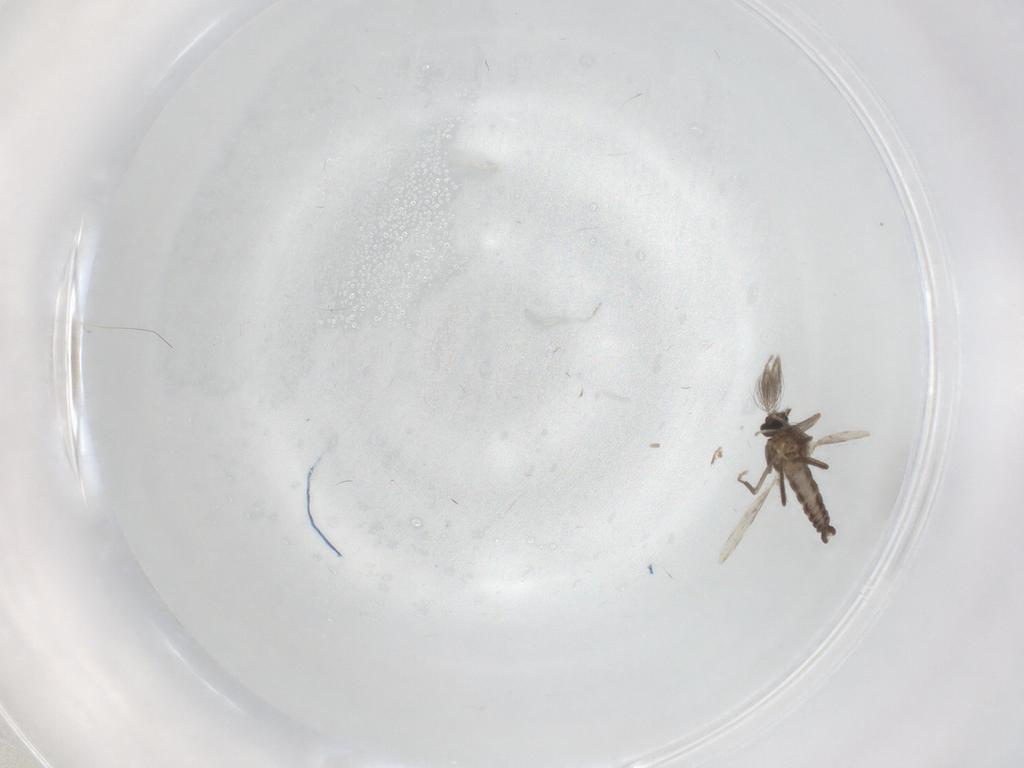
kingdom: Animalia
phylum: Arthropoda
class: Insecta
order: Diptera
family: Ceratopogonidae
